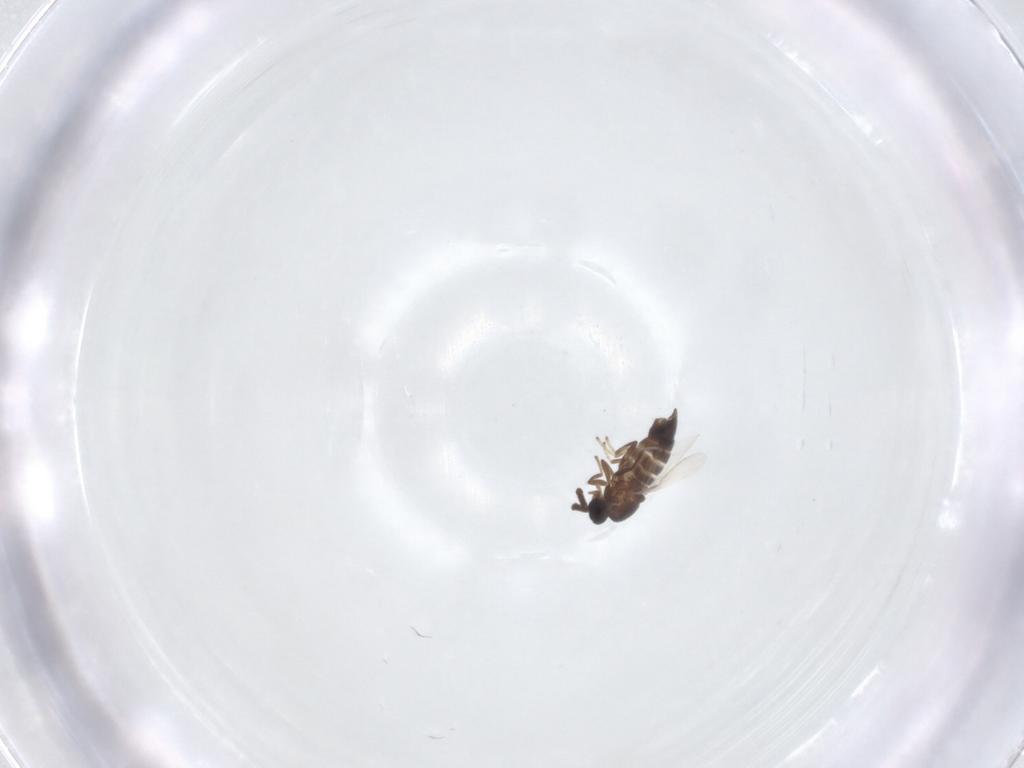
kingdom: Animalia
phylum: Arthropoda
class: Insecta
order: Diptera
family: Scatopsidae
